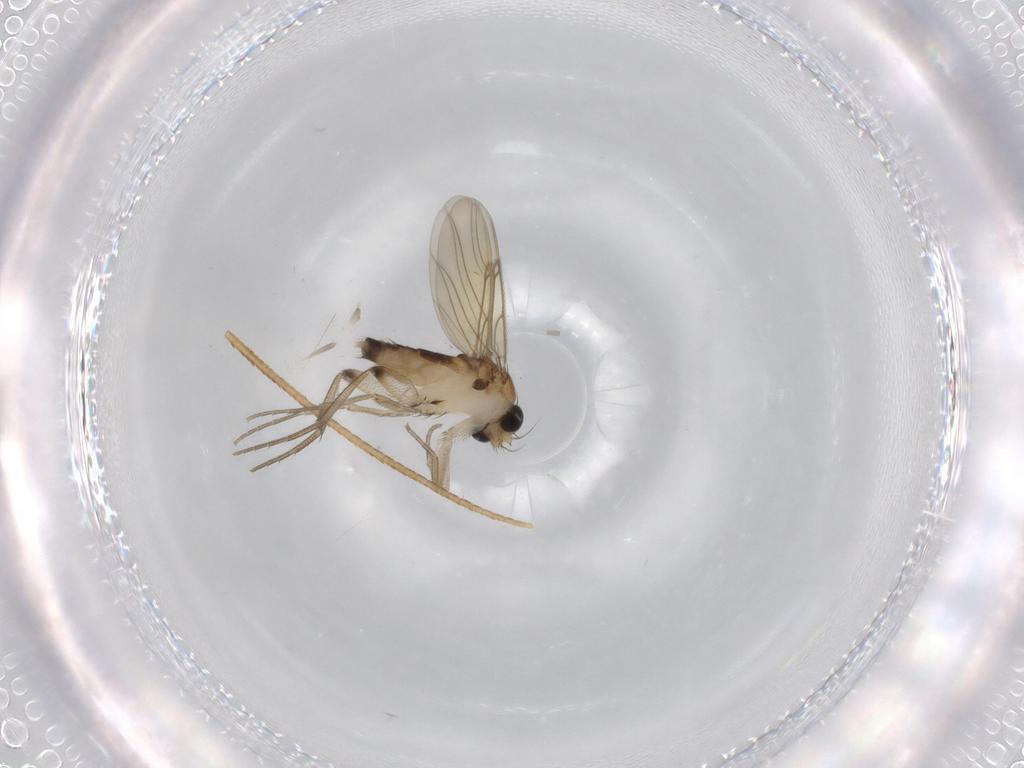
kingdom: Animalia
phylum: Arthropoda
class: Insecta
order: Diptera
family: Phoridae
